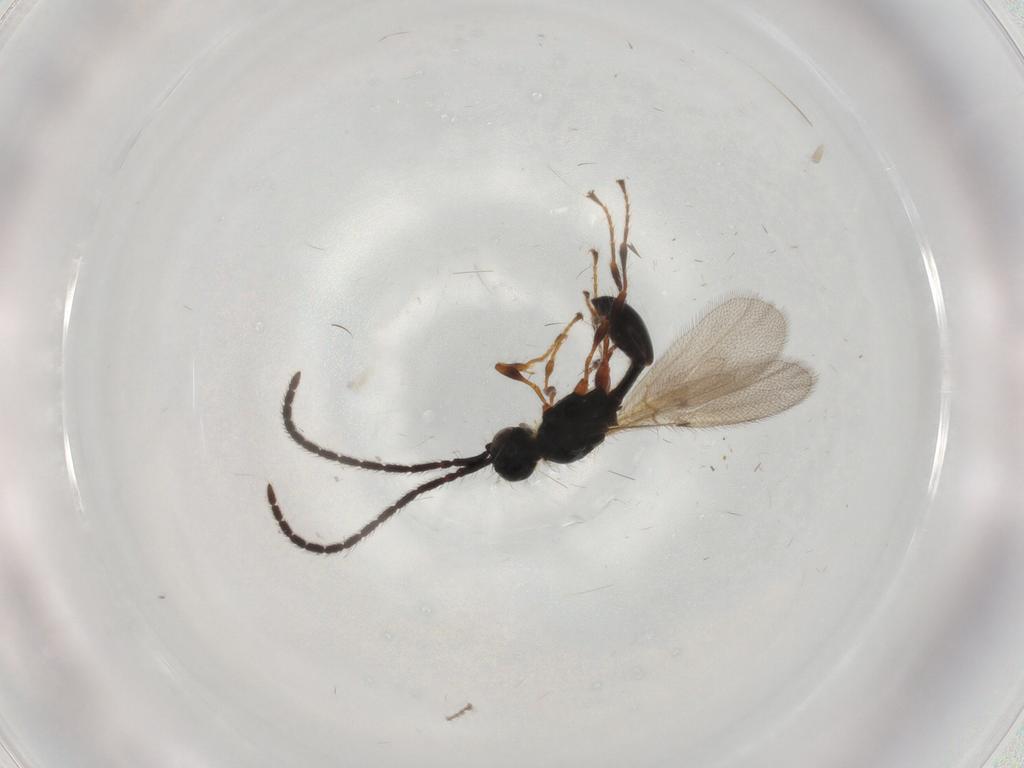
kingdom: Animalia
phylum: Arthropoda
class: Insecta
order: Hymenoptera
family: Diapriidae
